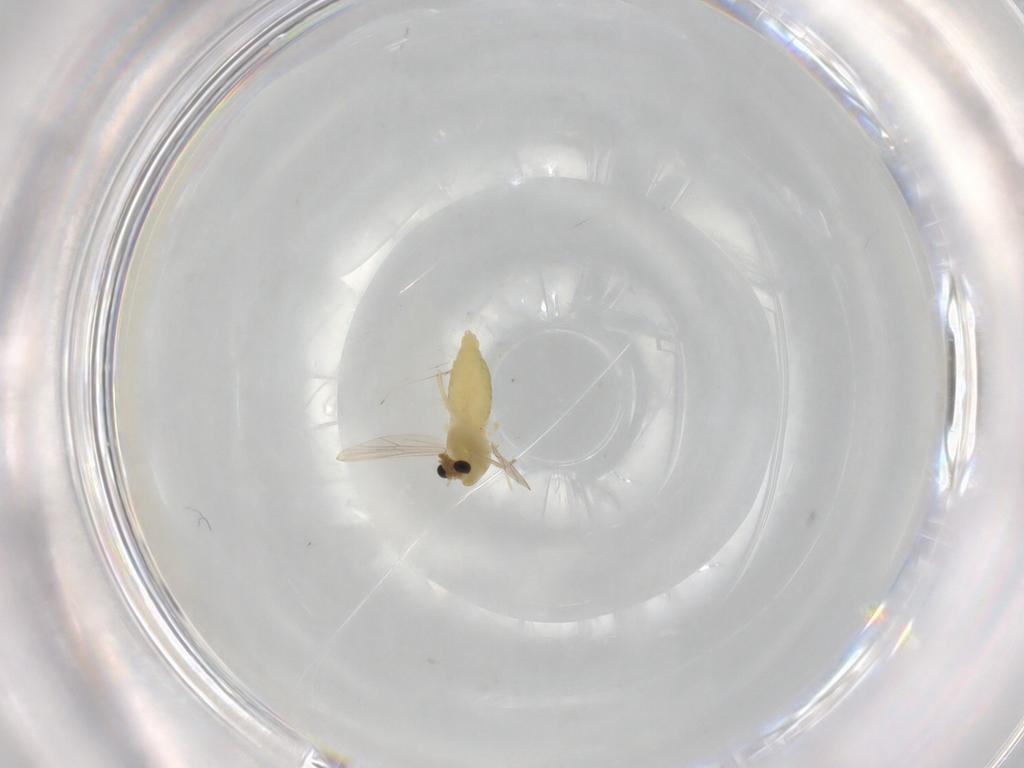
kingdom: Animalia
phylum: Arthropoda
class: Insecta
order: Diptera
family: Chironomidae
